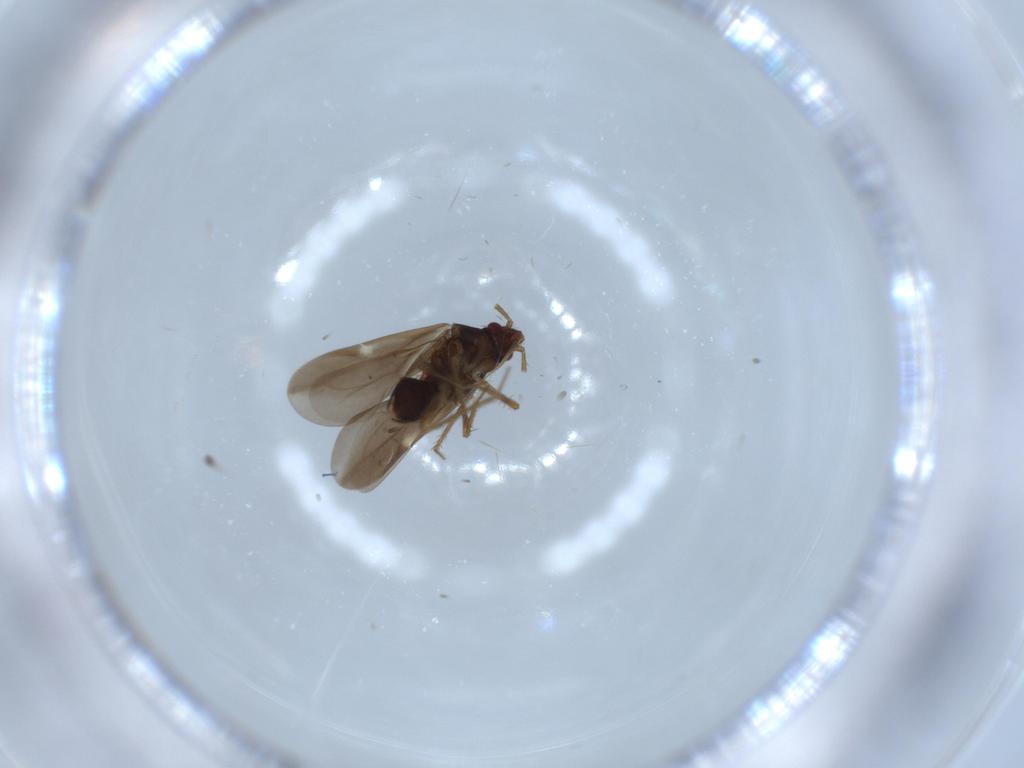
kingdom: Animalia
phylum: Arthropoda
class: Insecta
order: Hemiptera
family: Ceratocombidae
